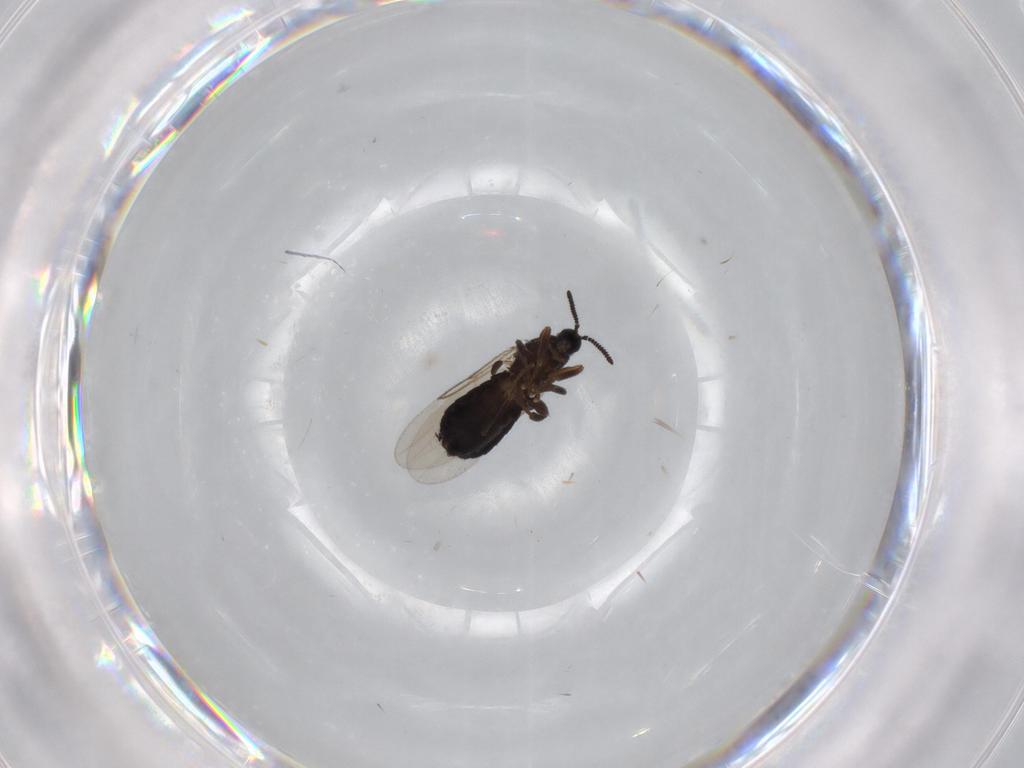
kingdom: Animalia
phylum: Arthropoda
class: Insecta
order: Diptera
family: Scatopsidae
